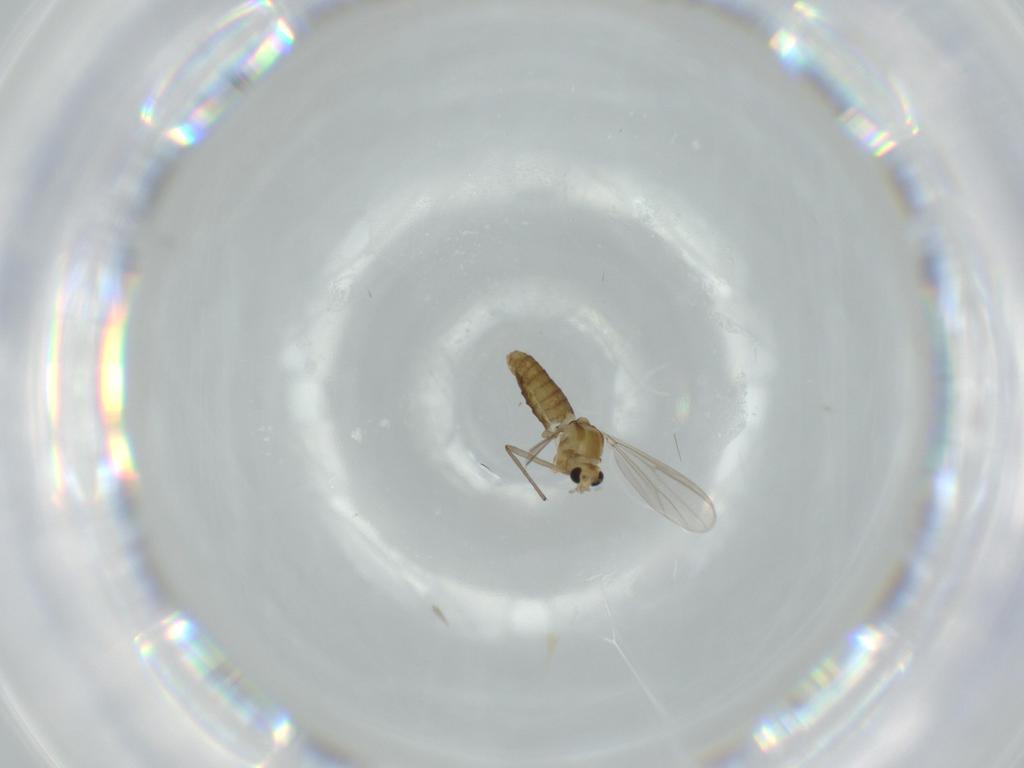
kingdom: Animalia
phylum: Arthropoda
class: Insecta
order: Diptera
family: Chironomidae
